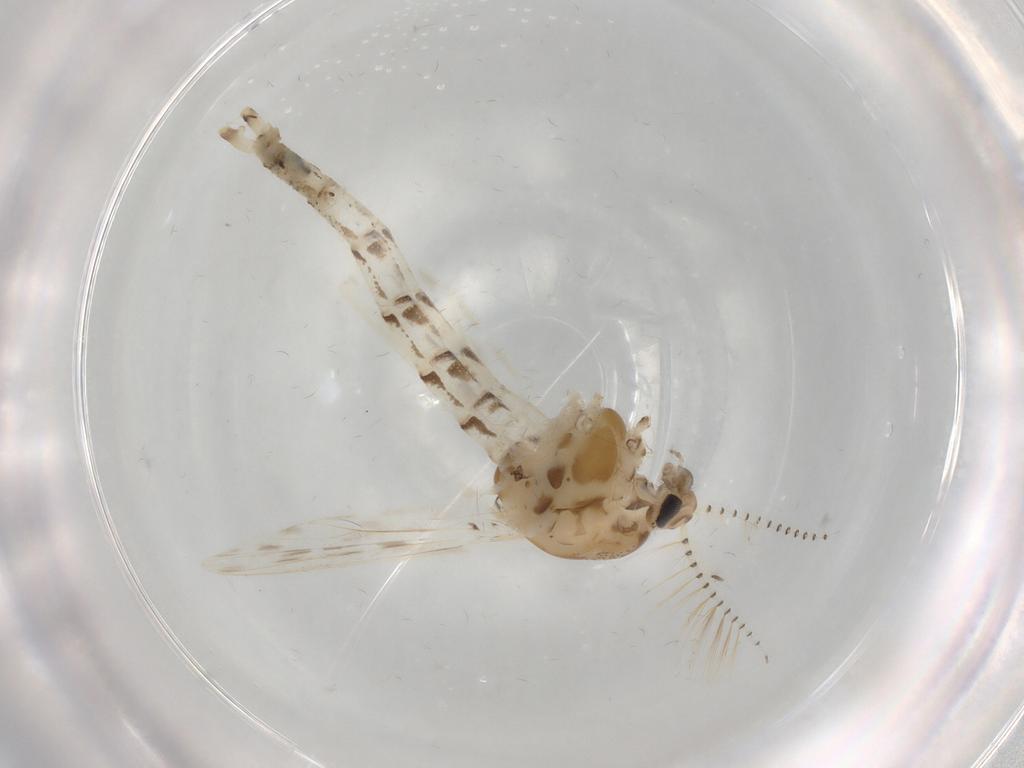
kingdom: Animalia
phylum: Arthropoda
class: Insecta
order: Diptera
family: Chaoboridae
